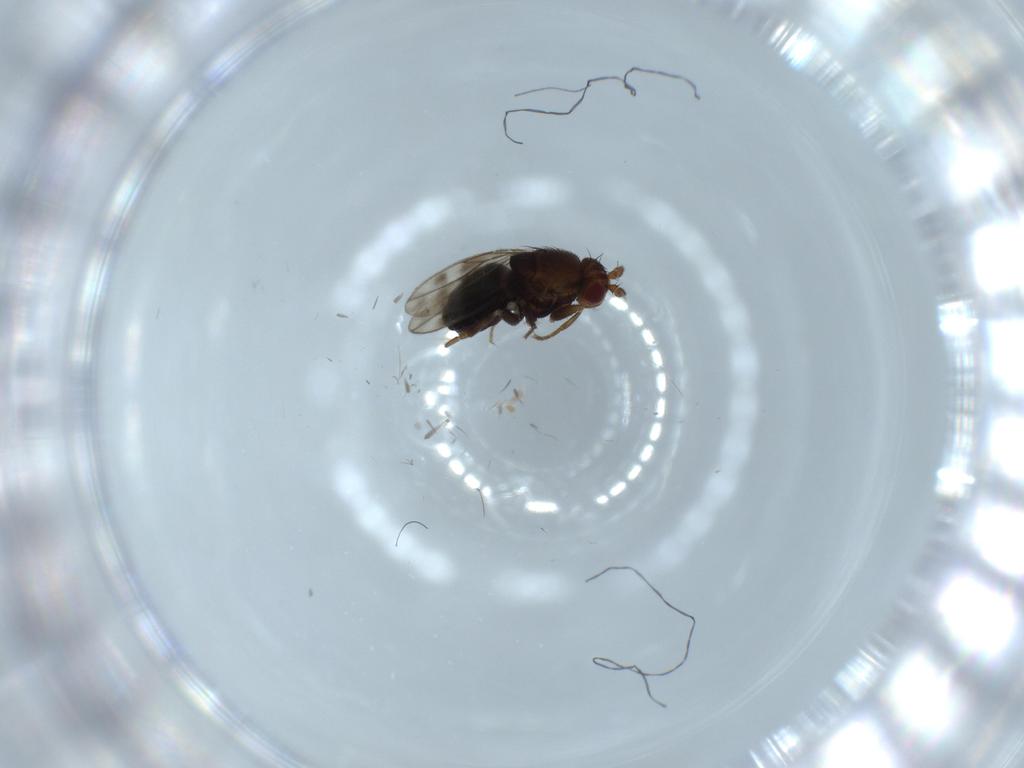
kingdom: Animalia
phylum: Arthropoda
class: Insecta
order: Diptera
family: Sphaeroceridae
